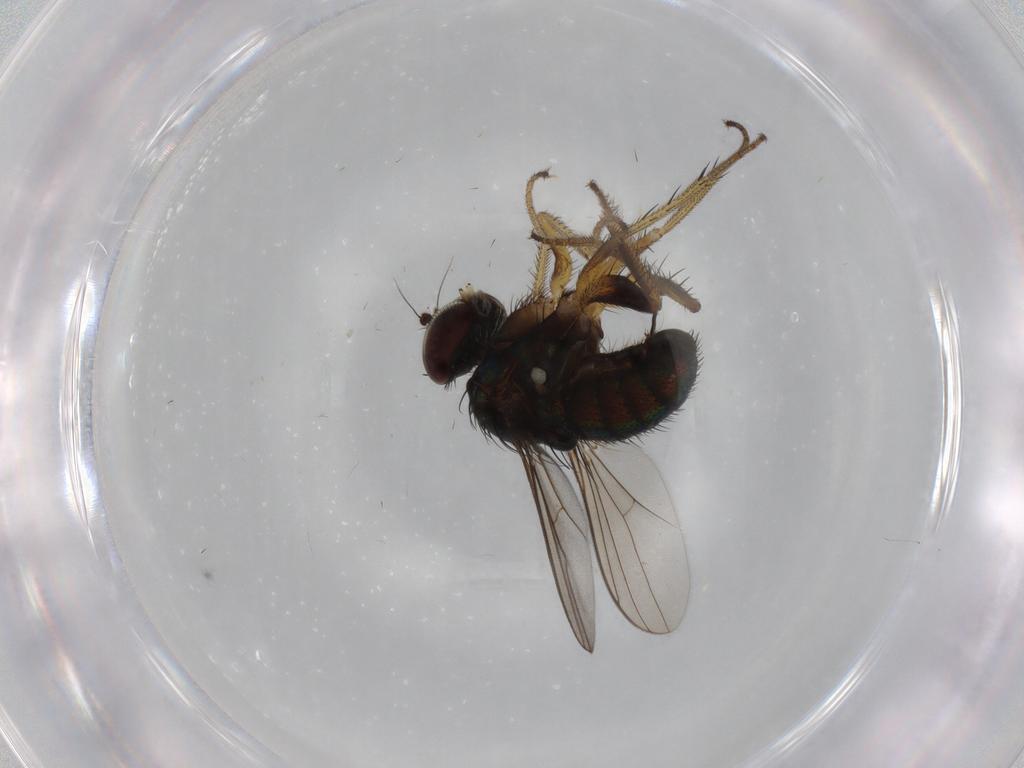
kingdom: Animalia
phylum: Arthropoda
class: Insecta
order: Diptera
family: Dolichopodidae
